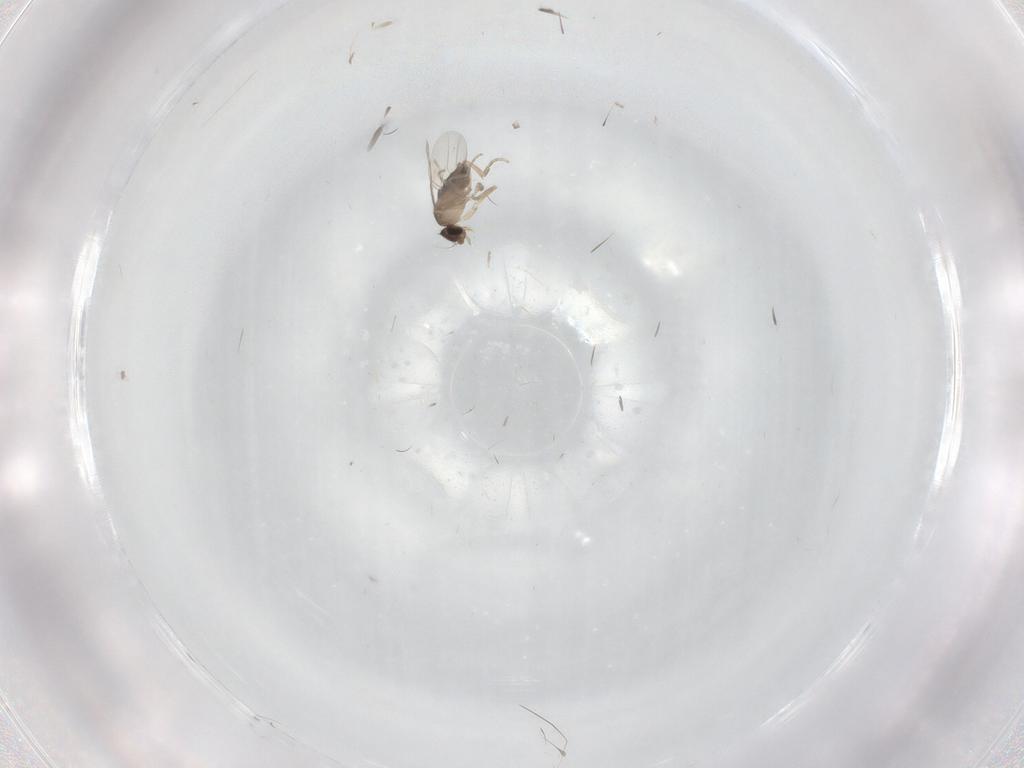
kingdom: Animalia
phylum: Arthropoda
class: Insecta
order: Diptera
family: Phoridae
